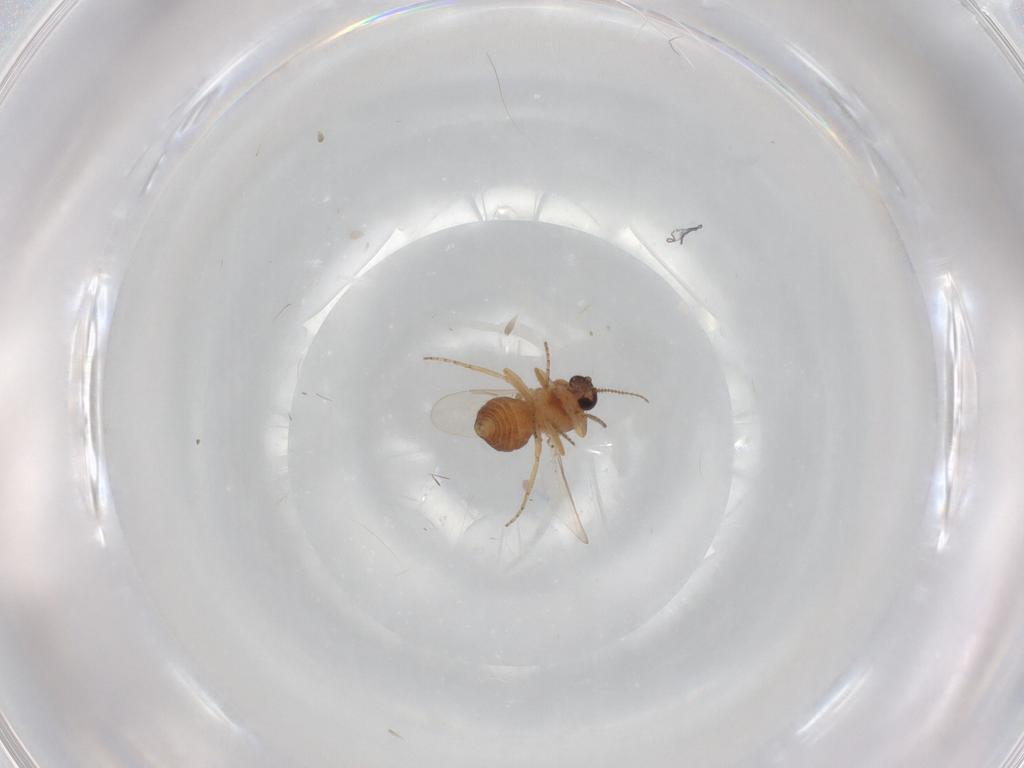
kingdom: Animalia
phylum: Arthropoda
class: Insecta
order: Diptera
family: Ceratopogonidae
